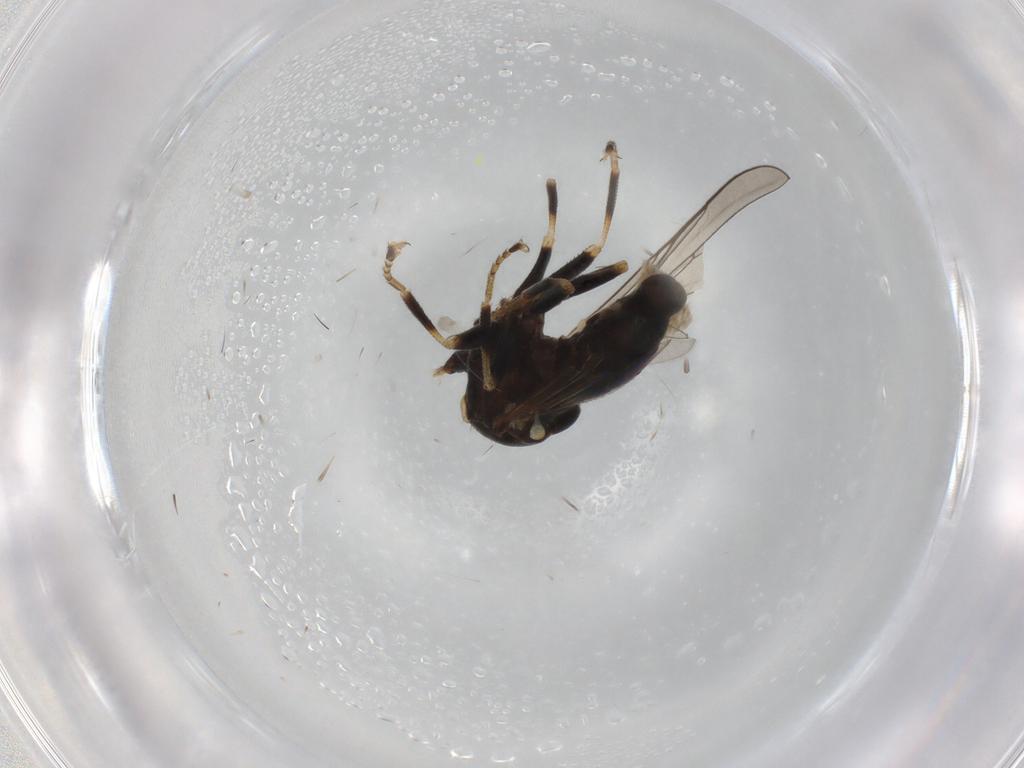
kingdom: Animalia
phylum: Arthropoda
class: Insecta
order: Diptera
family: Pipunculidae
